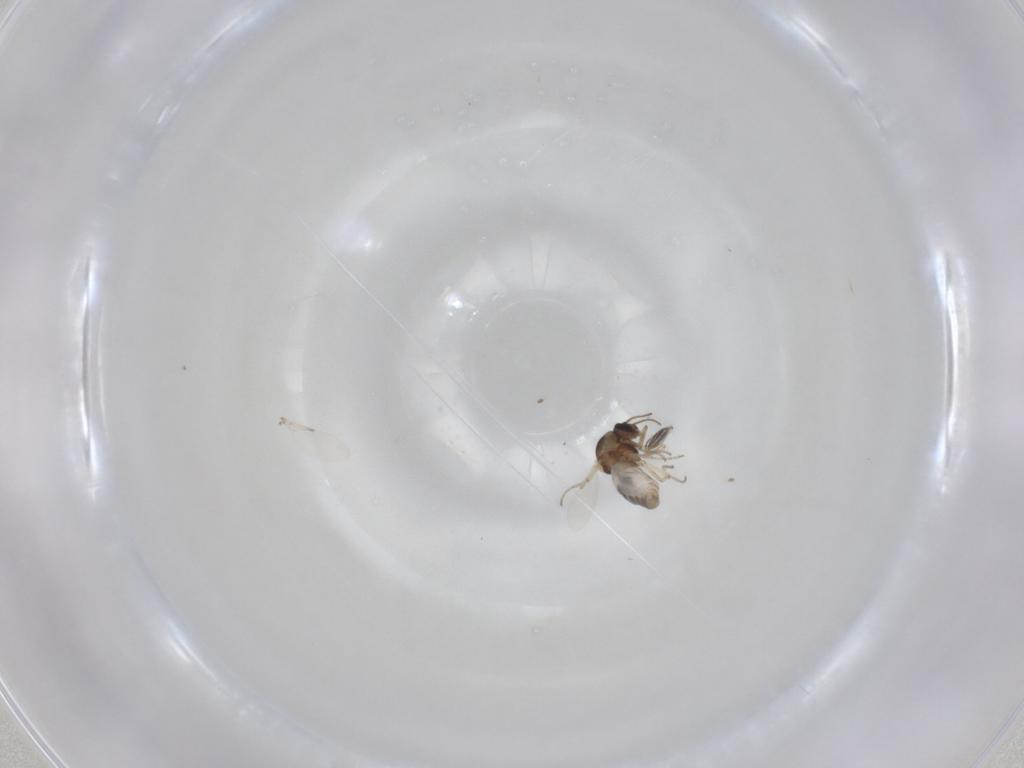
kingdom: Animalia
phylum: Arthropoda
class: Insecta
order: Diptera
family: Ceratopogonidae
